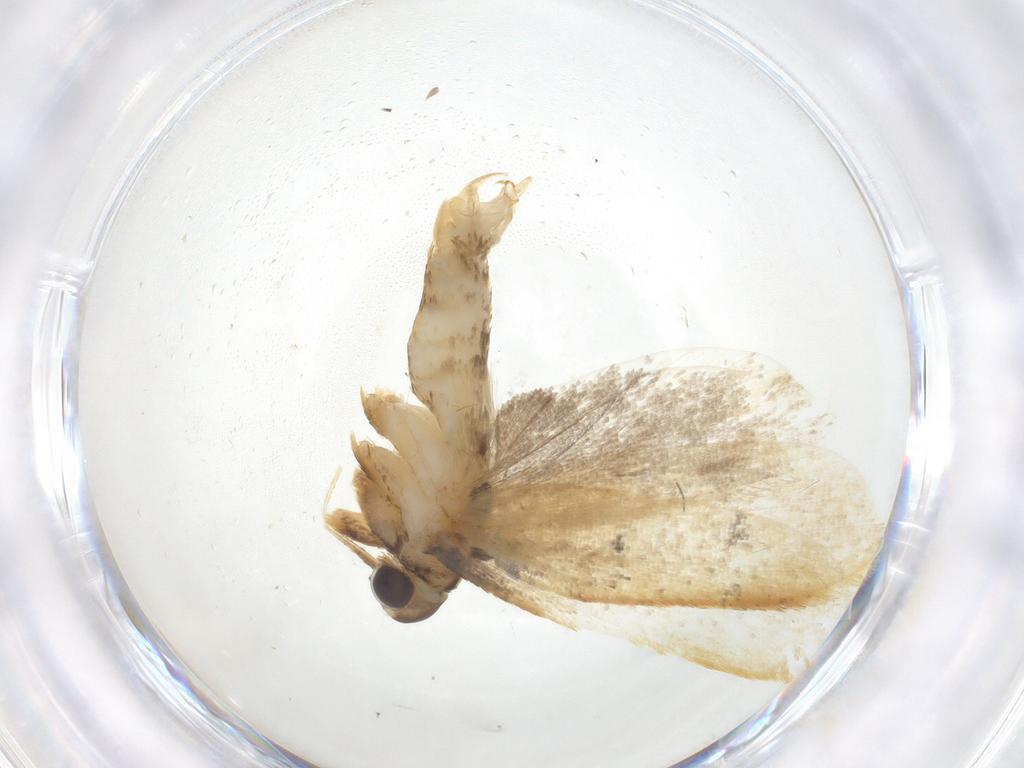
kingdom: Animalia
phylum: Arthropoda
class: Insecta
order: Lepidoptera
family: Lecithoceridae
